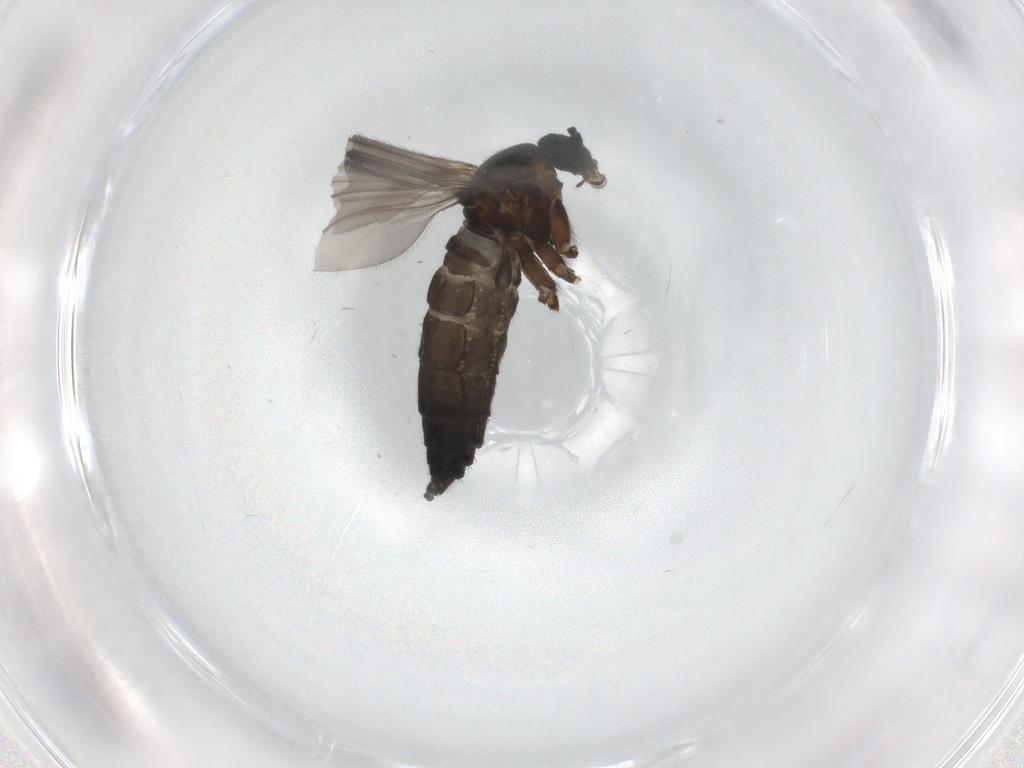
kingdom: Animalia
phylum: Arthropoda
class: Insecta
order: Diptera
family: Sciaridae
